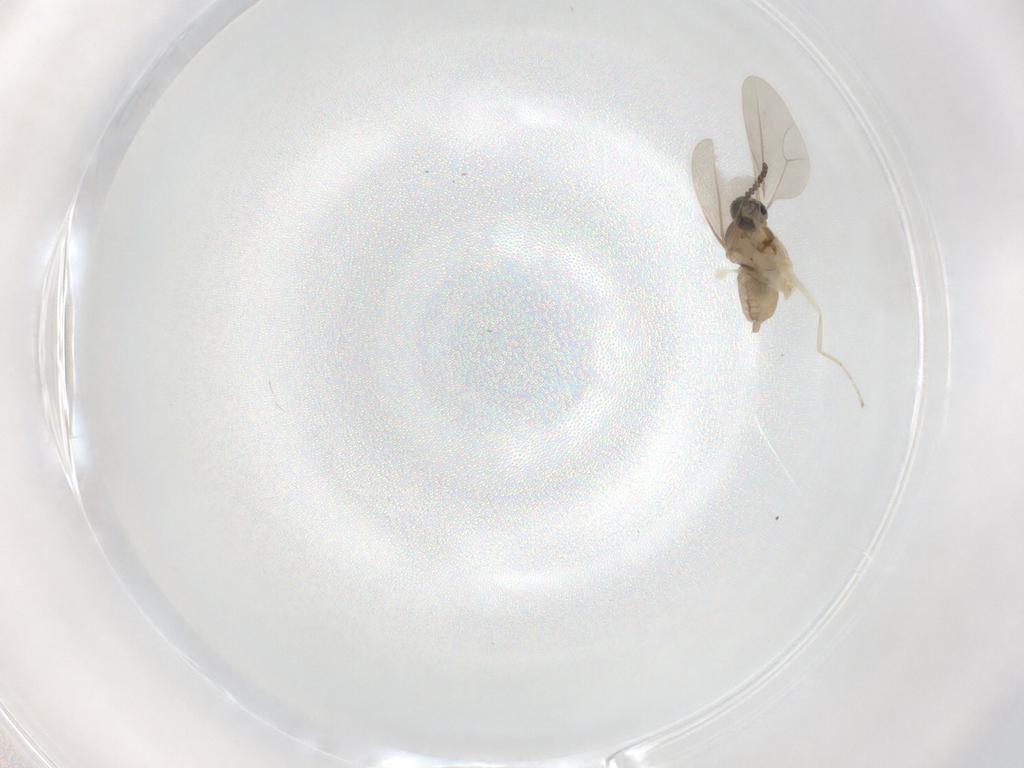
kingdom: Animalia
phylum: Arthropoda
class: Insecta
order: Diptera
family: Chironomidae
